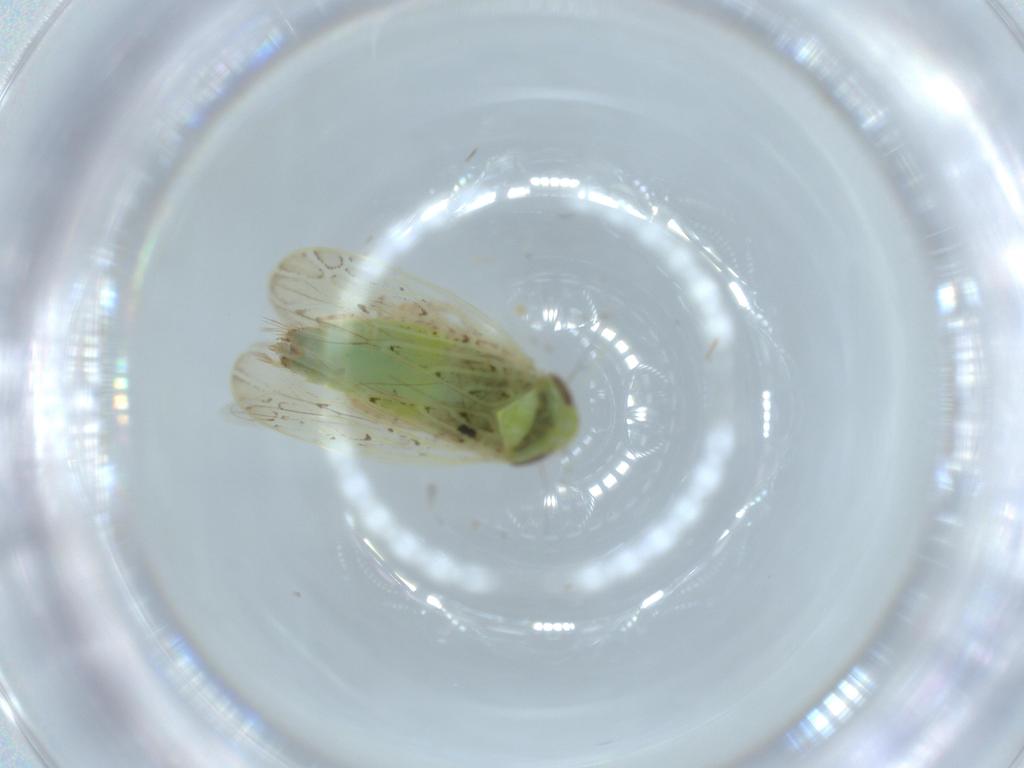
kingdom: Animalia
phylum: Arthropoda
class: Insecta
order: Hemiptera
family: Cicadellidae
